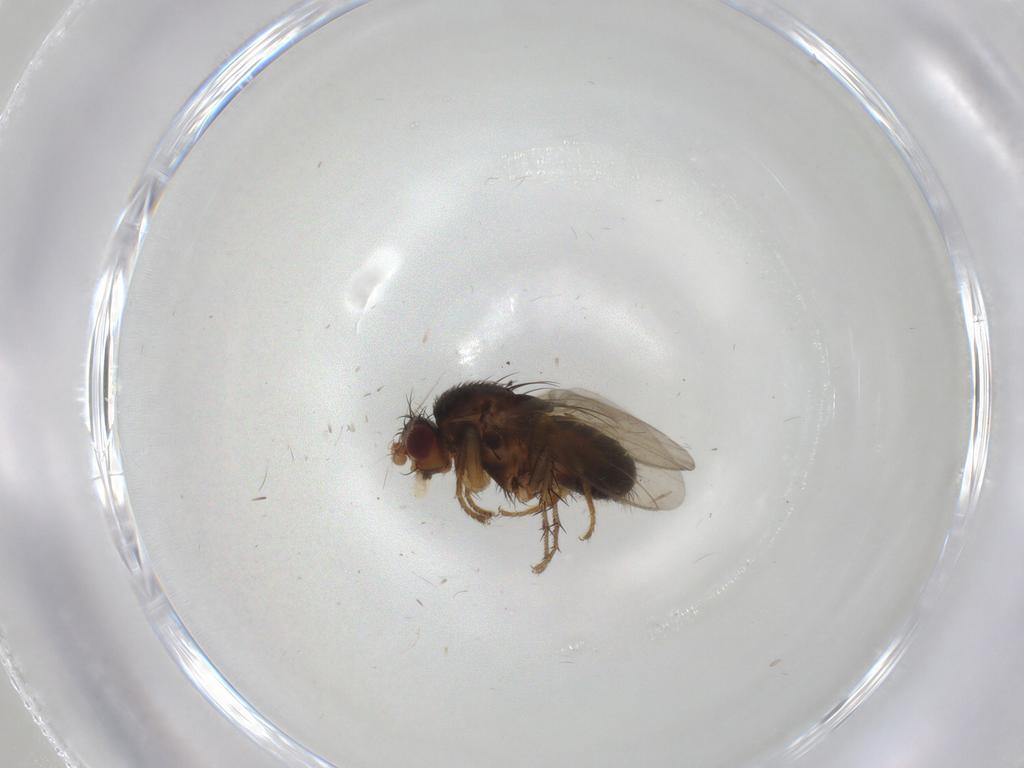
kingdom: Animalia
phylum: Arthropoda
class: Insecta
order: Diptera
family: Sphaeroceridae
